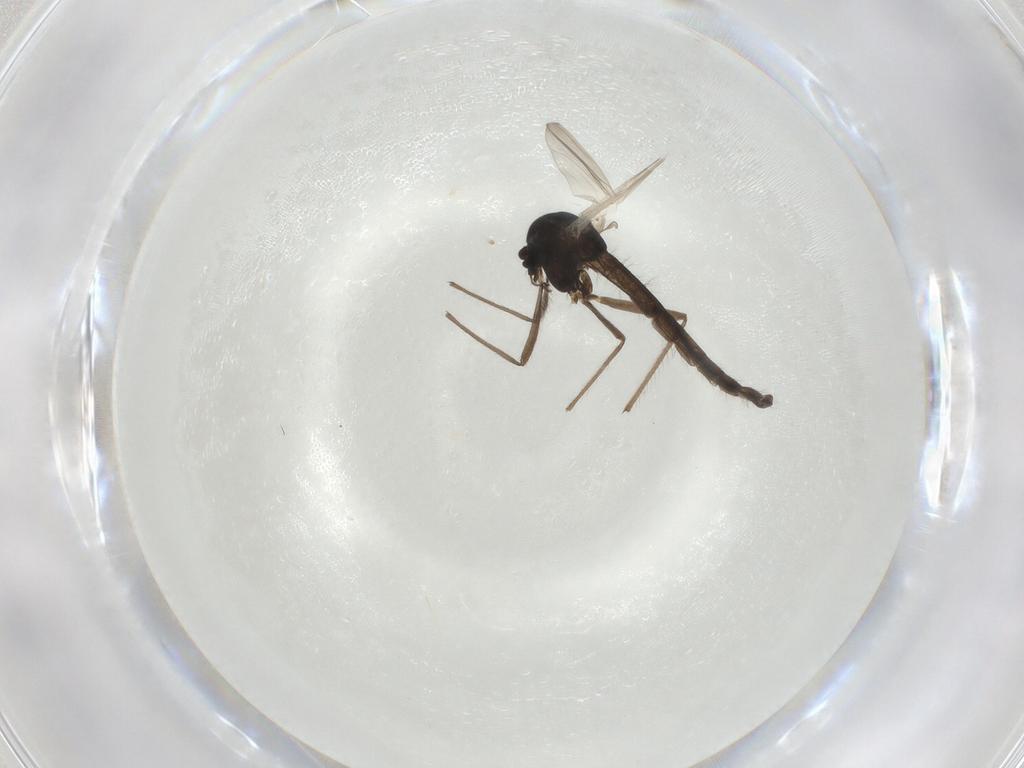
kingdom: Animalia
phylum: Arthropoda
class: Insecta
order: Diptera
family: Chironomidae
